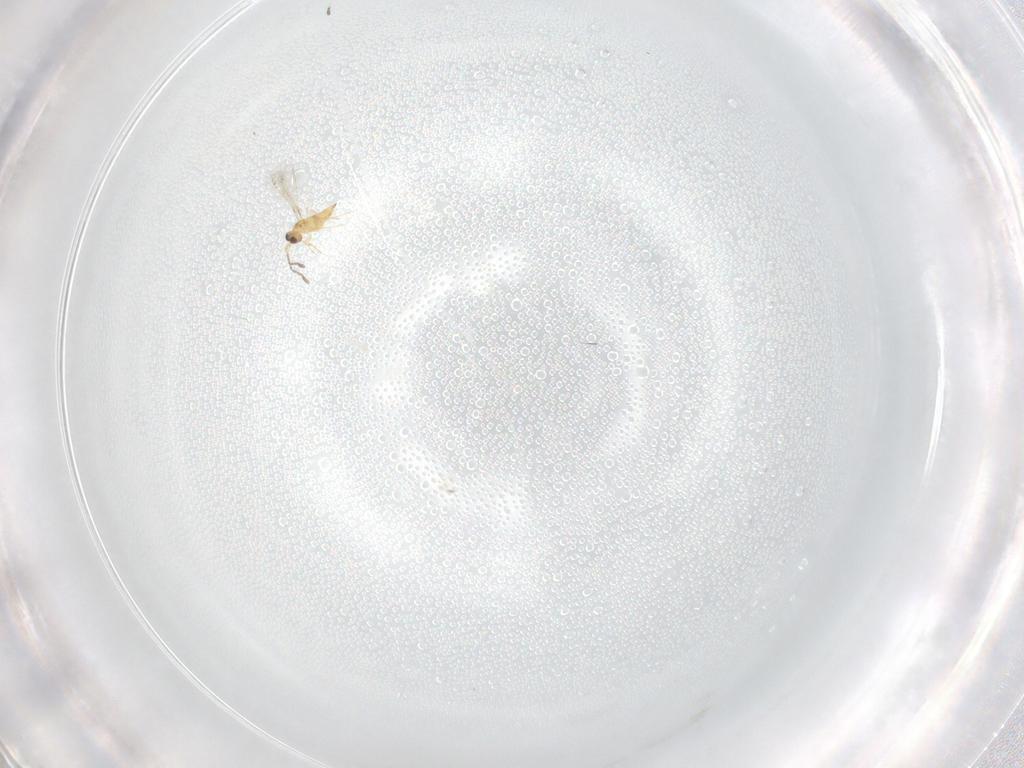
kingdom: Animalia
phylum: Arthropoda
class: Insecta
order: Hymenoptera
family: Mymaridae
